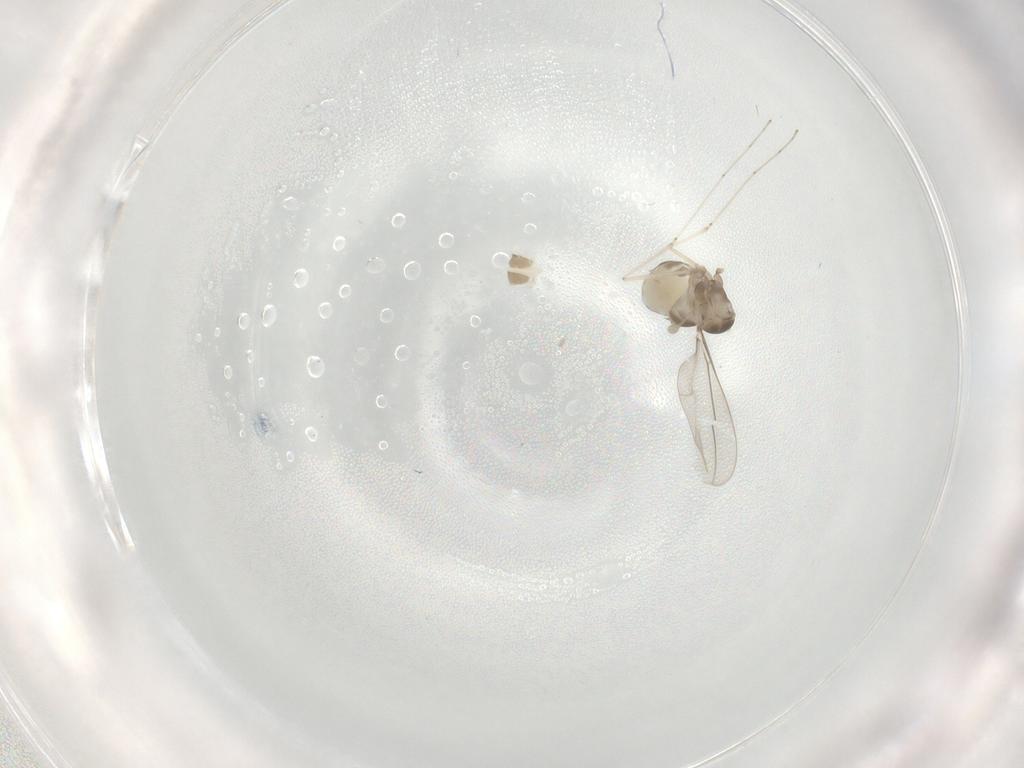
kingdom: Animalia
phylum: Arthropoda
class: Insecta
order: Diptera
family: Cecidomyiidae
